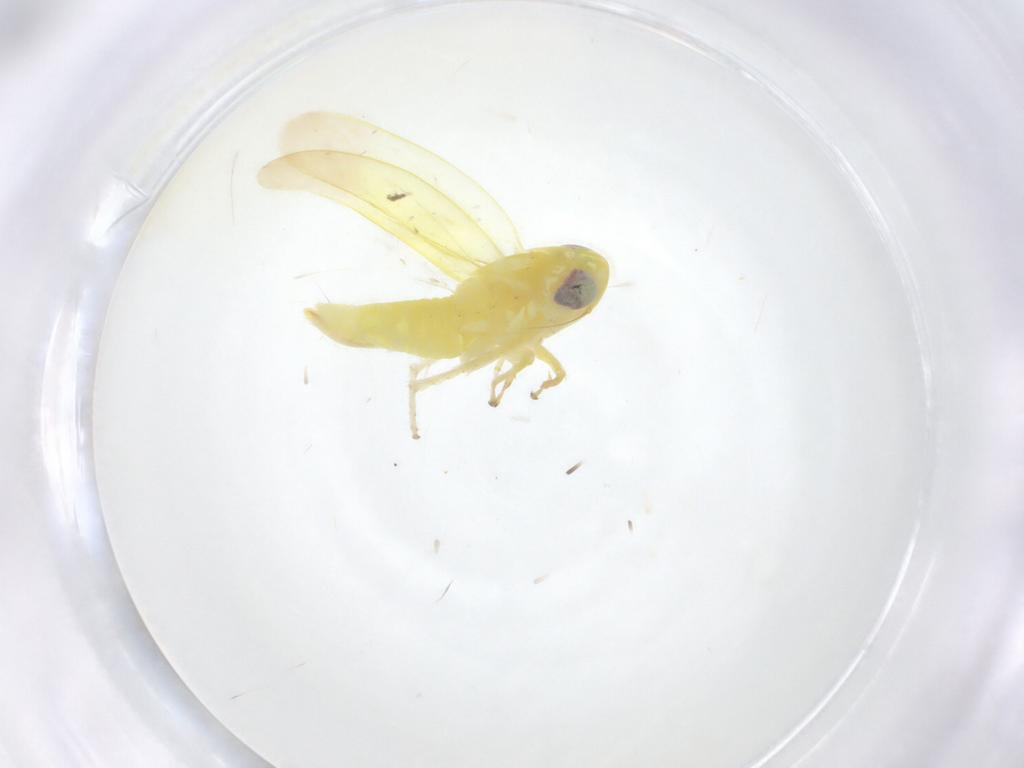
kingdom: Animalia
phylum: Arthropoda
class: Insecta
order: Hemiptera
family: Cicadellidae
